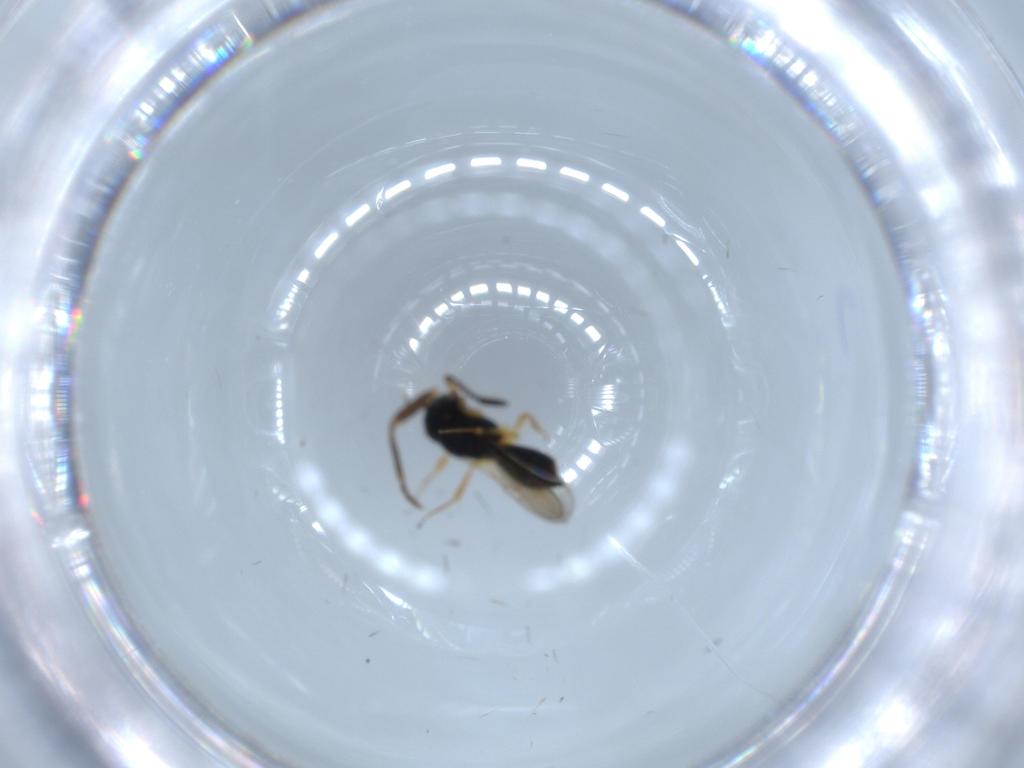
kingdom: Animalia
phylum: Arthropoda
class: Insecta
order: Hymenoptera
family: Scelionidae
